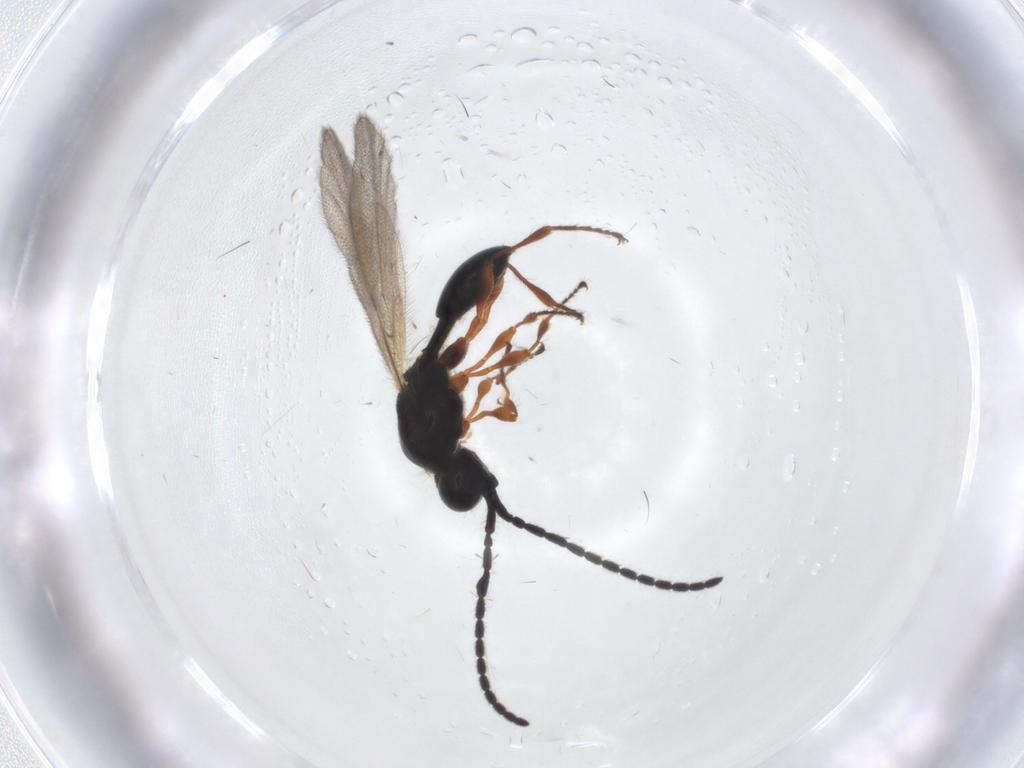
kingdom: Animalia
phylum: Arthropoda
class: Insecta
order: Hymenoptera
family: Diapriidae
